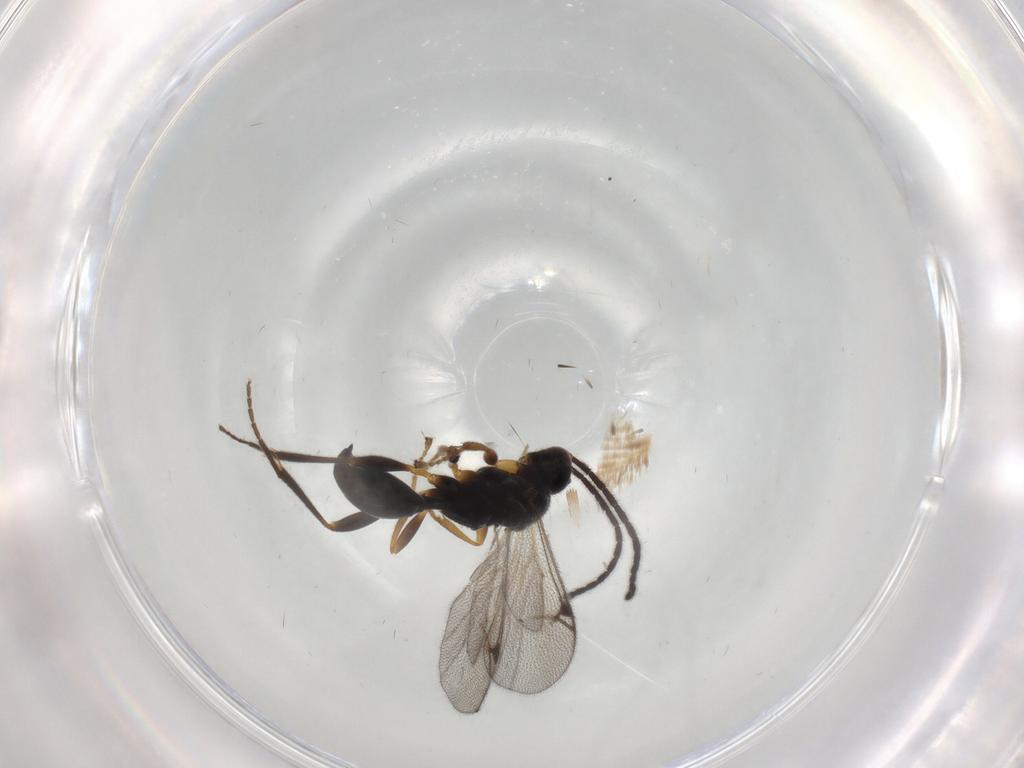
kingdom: Animalia
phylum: Arthropoda
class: Insecta
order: Hymenoptera
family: Proctotrupidae
